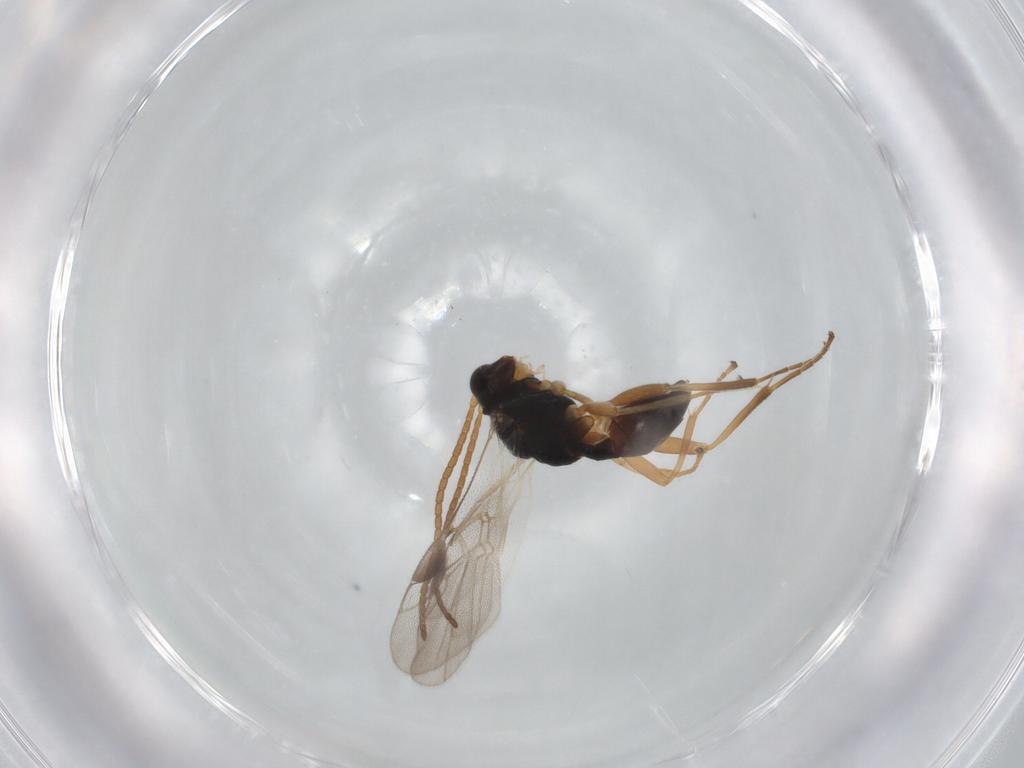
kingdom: Animalia
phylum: Arthropoda
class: Insecta
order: Hymenoptera
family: Braconidae
